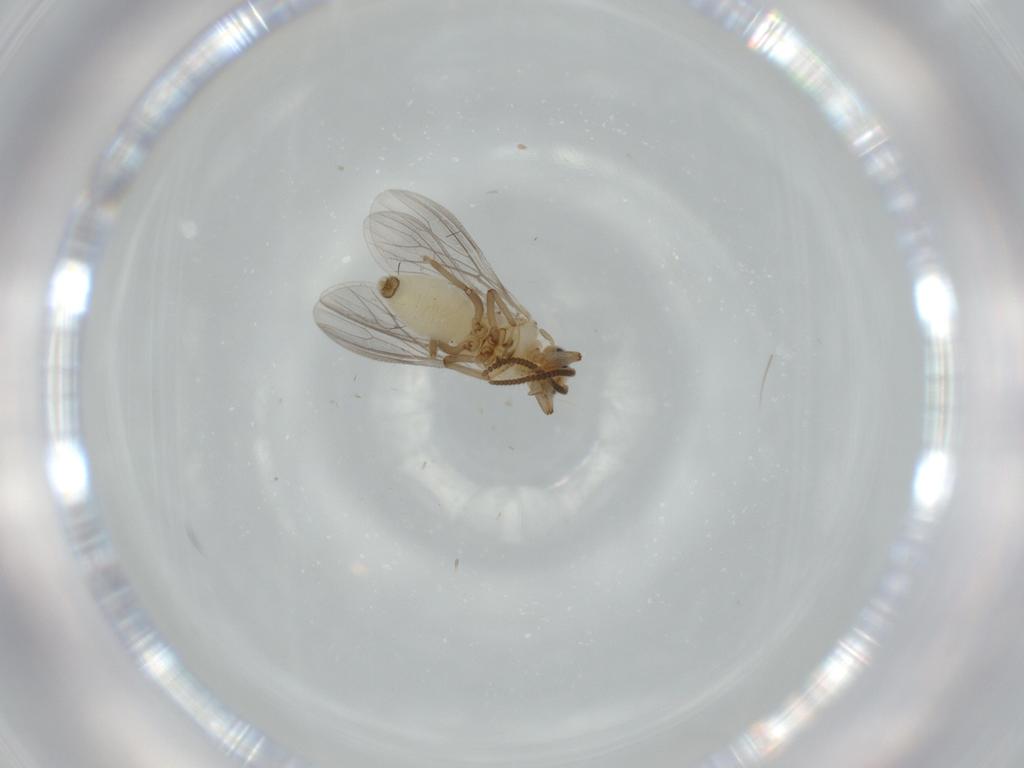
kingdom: Animalia
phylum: Arthropoda
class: Insecta
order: Neuroptera
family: Coniopterygidae
